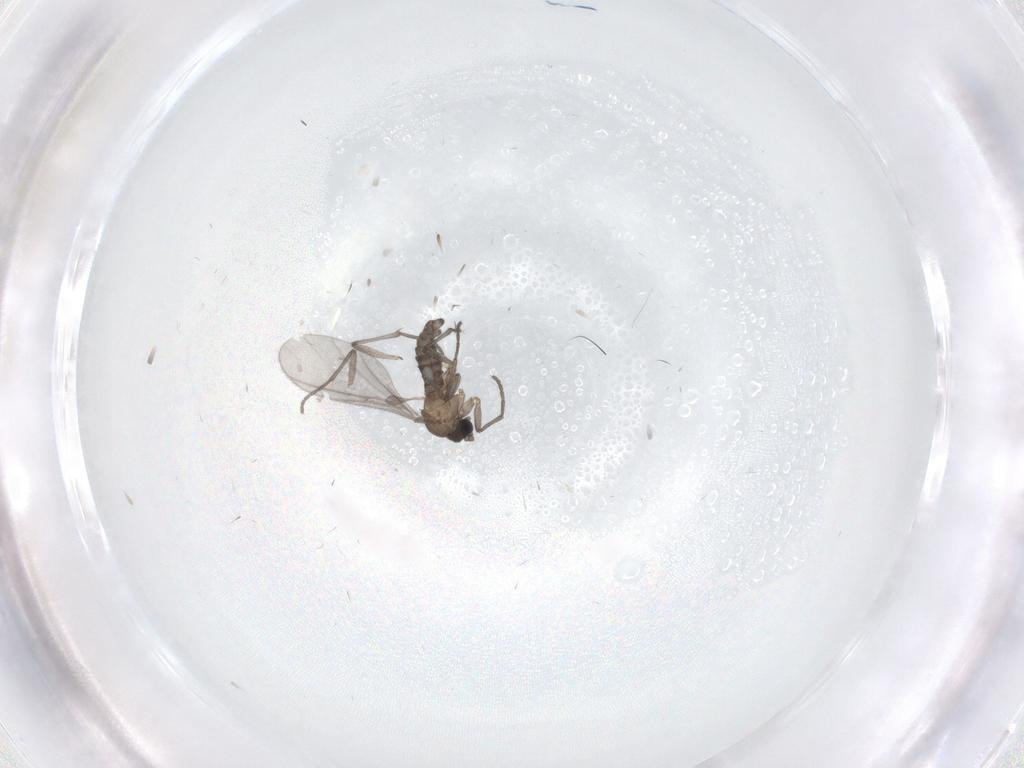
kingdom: Animalia
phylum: Arthropoda
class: Insecta
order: Diptera
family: Sciaridae
